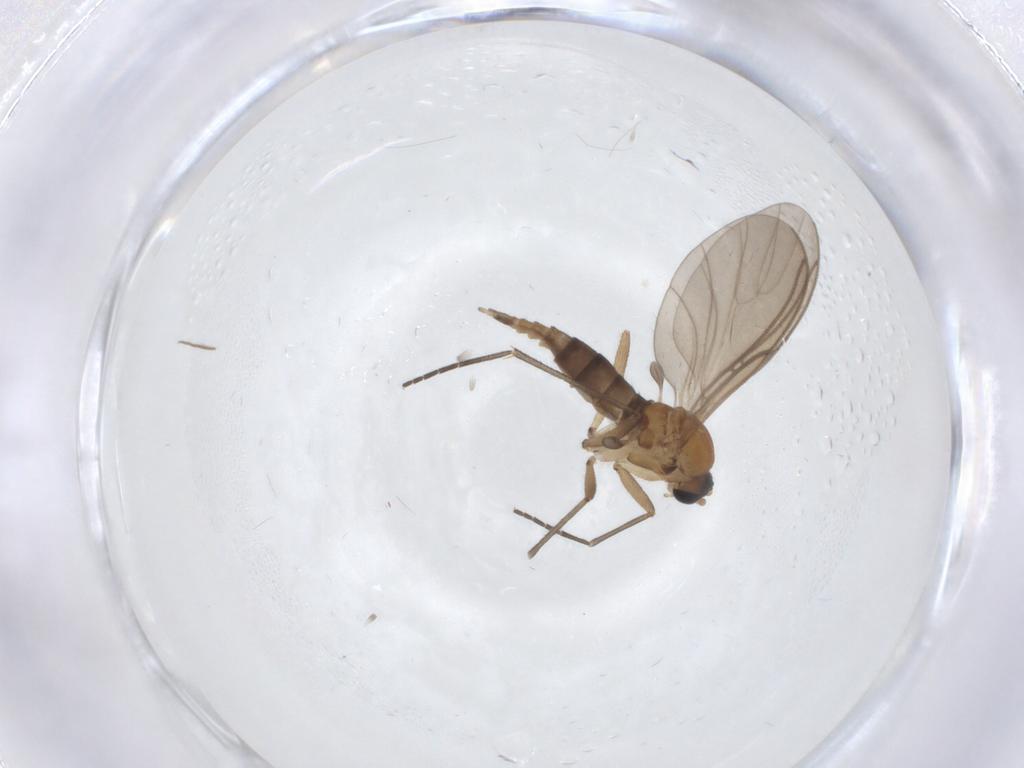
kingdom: Animalia
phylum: Arthropoda
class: Insecta
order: Diptera
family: Sciaridae
